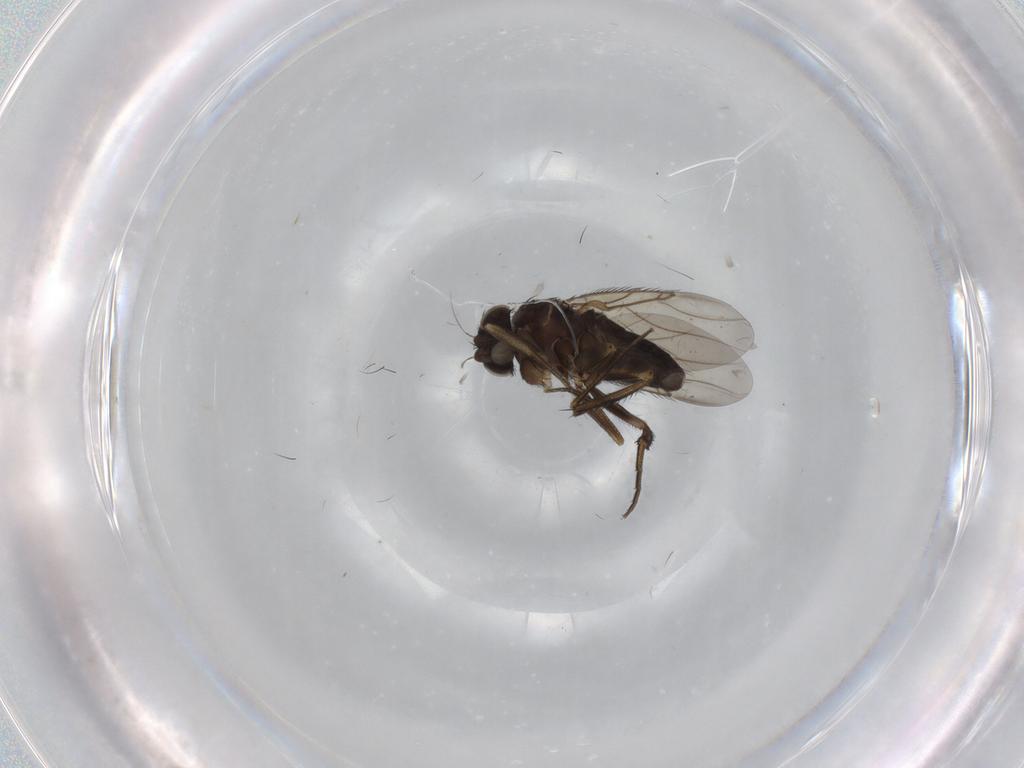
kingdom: Animalia
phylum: Arthropoda
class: Insecta
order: Diptera
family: Phoridae
